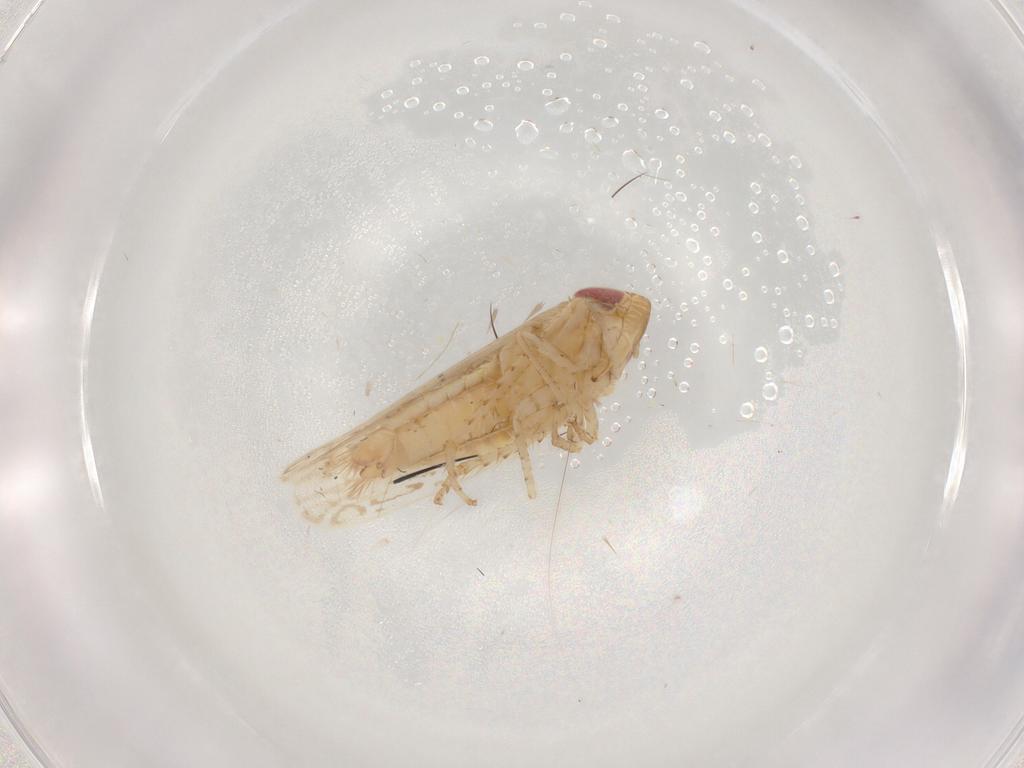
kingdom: Animalia
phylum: Arthropoda
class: Insecta
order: Hemiptera
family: Cicadellidae
